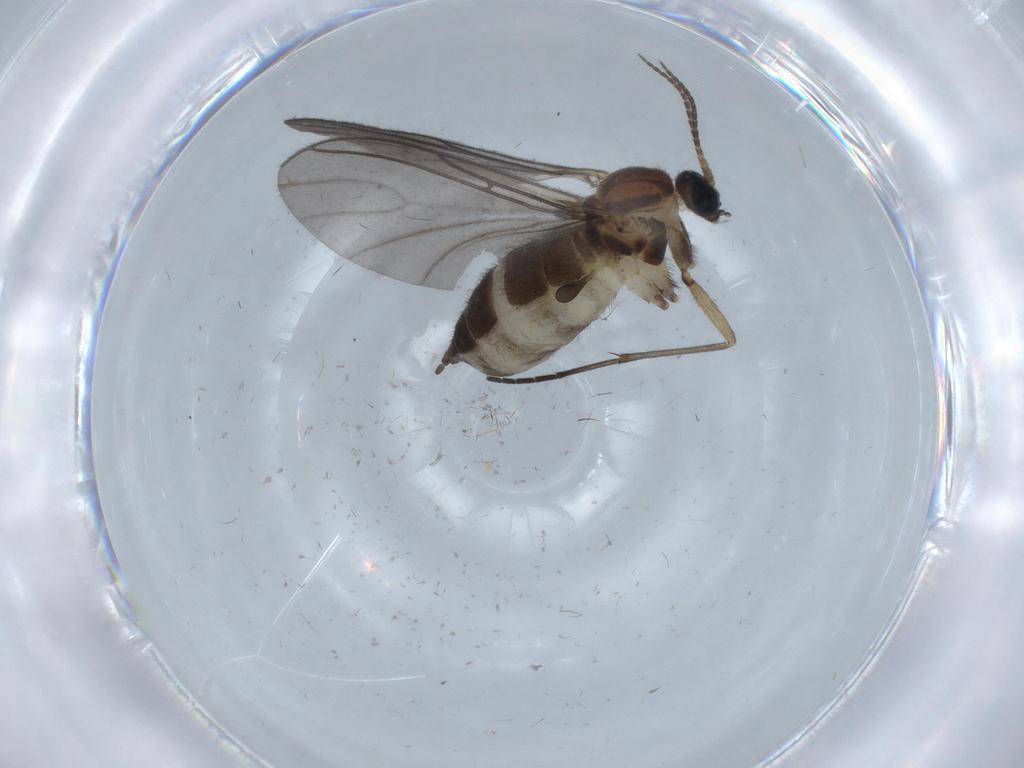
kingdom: Animalia
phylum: Arthropoda
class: Insecta
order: Diptera
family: Sciaridae
